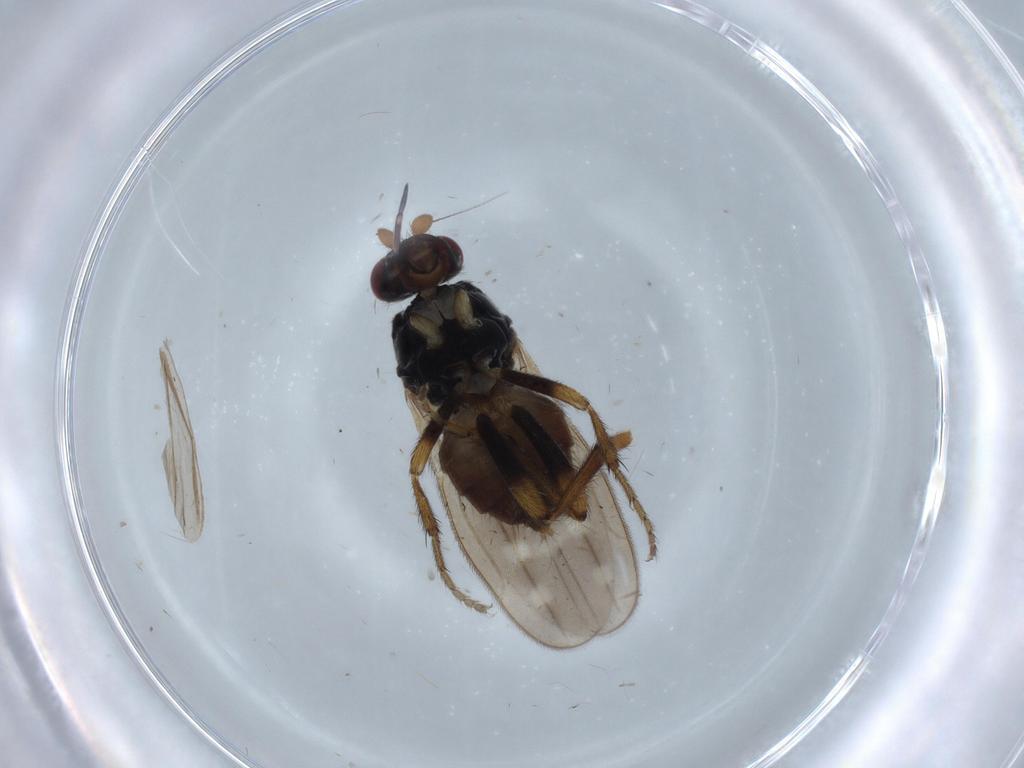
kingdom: Animalia
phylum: Arthropoda
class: Insecta
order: Diptera
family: Sphaeroceridae
